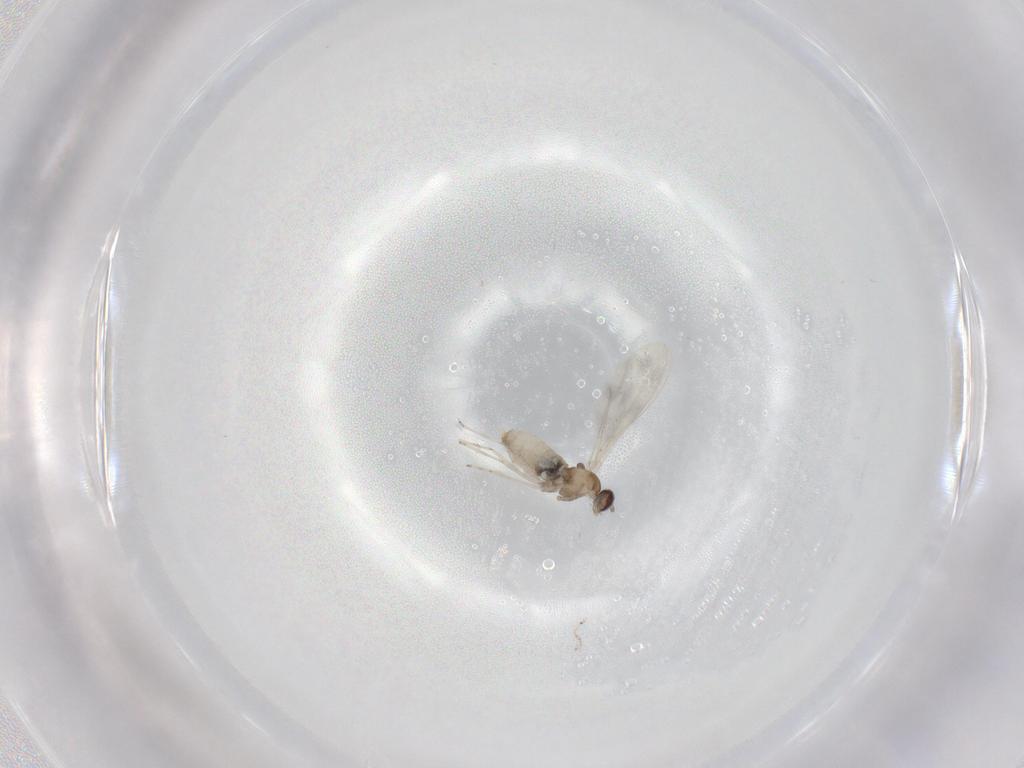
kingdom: Animalia
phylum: Arthropoda
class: Insecta
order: Diptera
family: Cecidomyiidae
